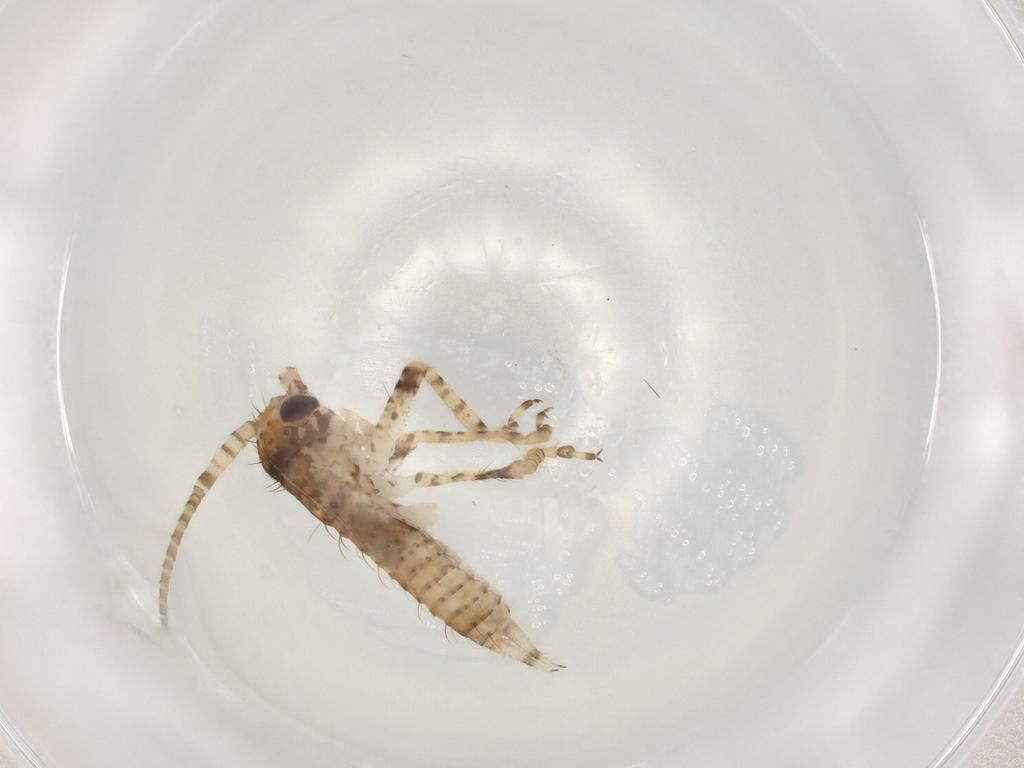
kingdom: Animalia
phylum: Arthropoda
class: Insecta
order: Orthoptera
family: Gryllidae
